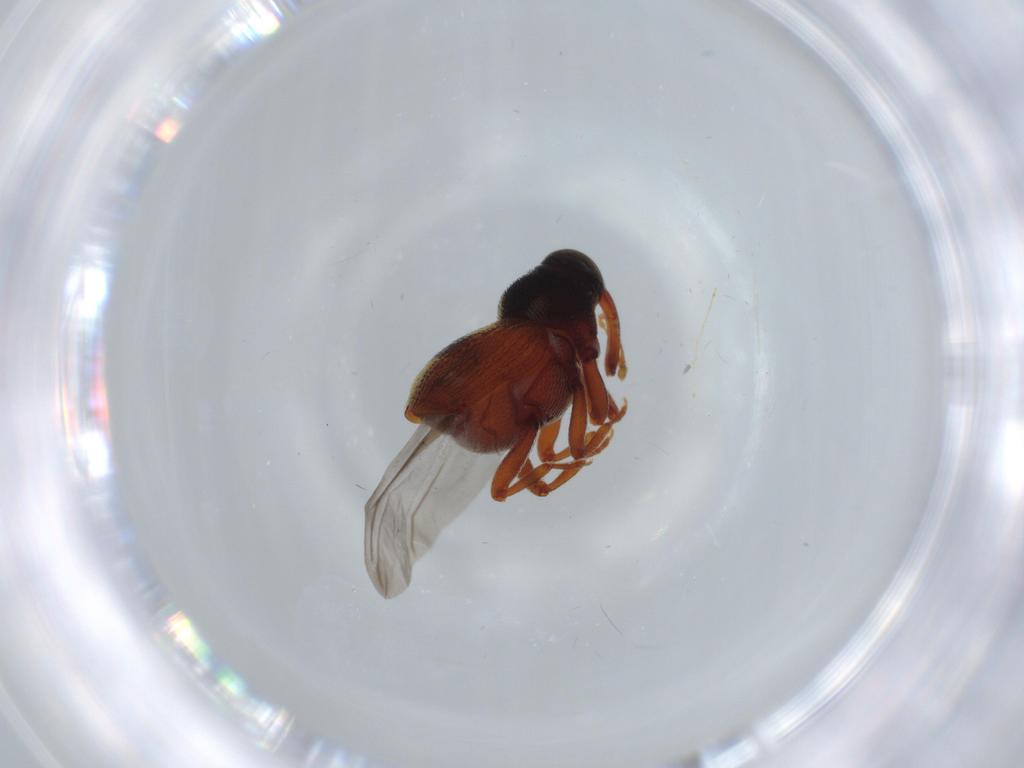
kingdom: Animalia
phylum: Arthropoda
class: Insecta
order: Coleoptera
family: Curculionidae
